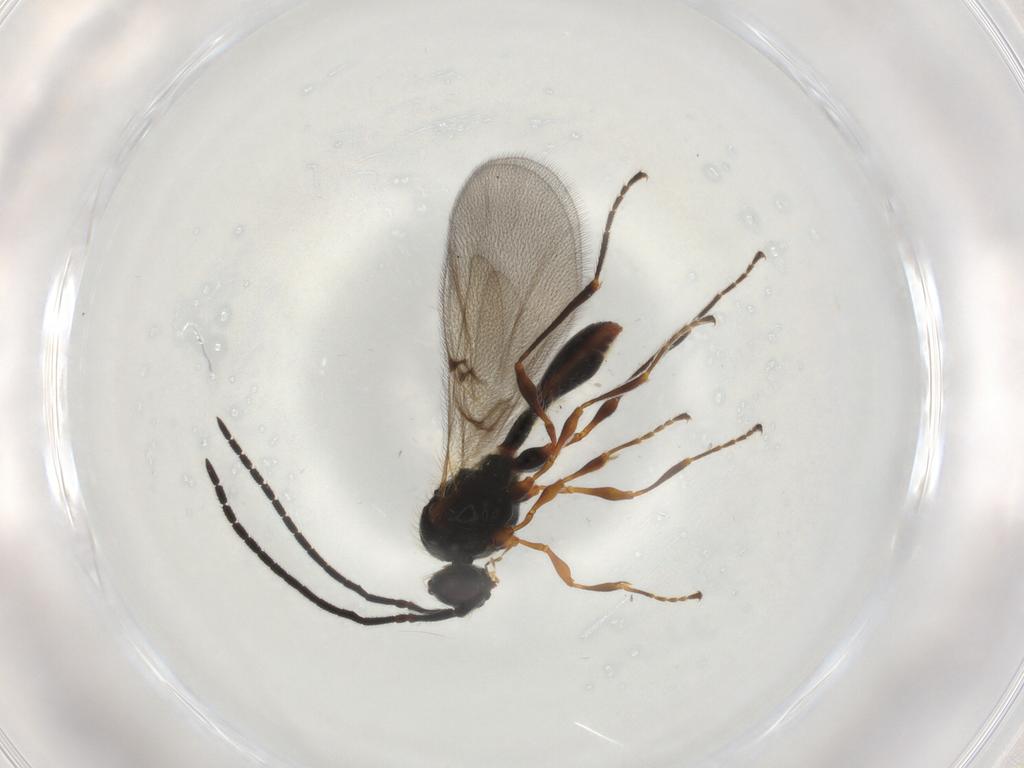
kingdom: Animalia
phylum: Arthropoda
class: Insecta
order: Hymenoptera
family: Diapriidae
